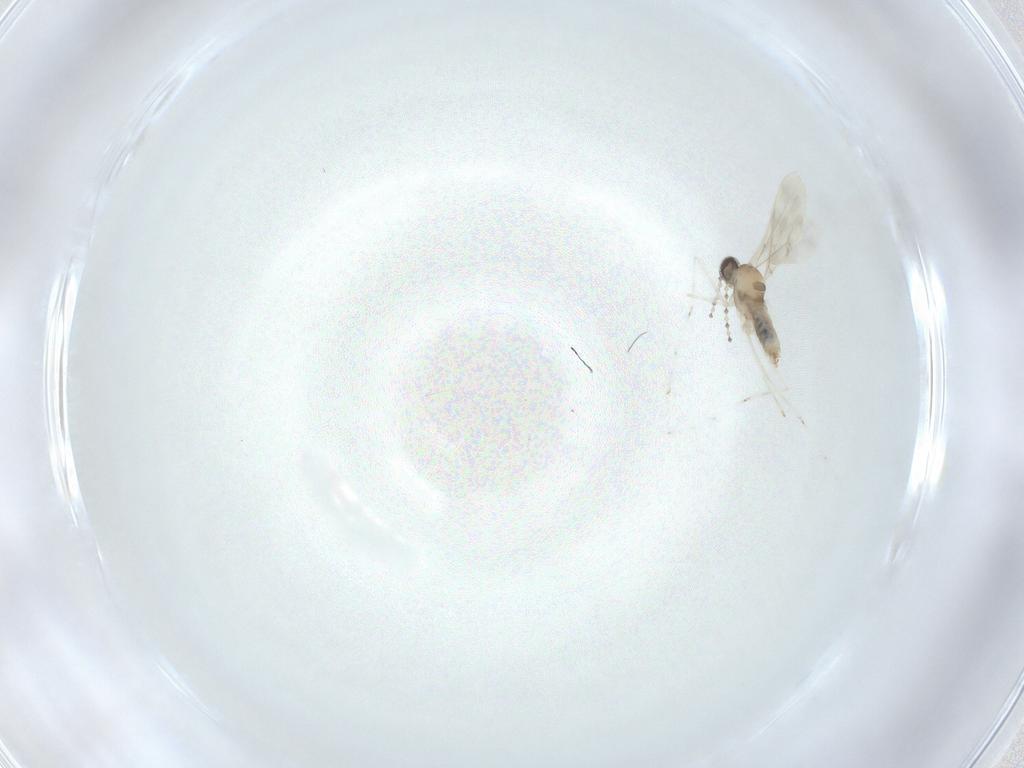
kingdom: Animalia
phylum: Arthropoda
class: Insecta
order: Diptera
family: Cecidomyiidae
